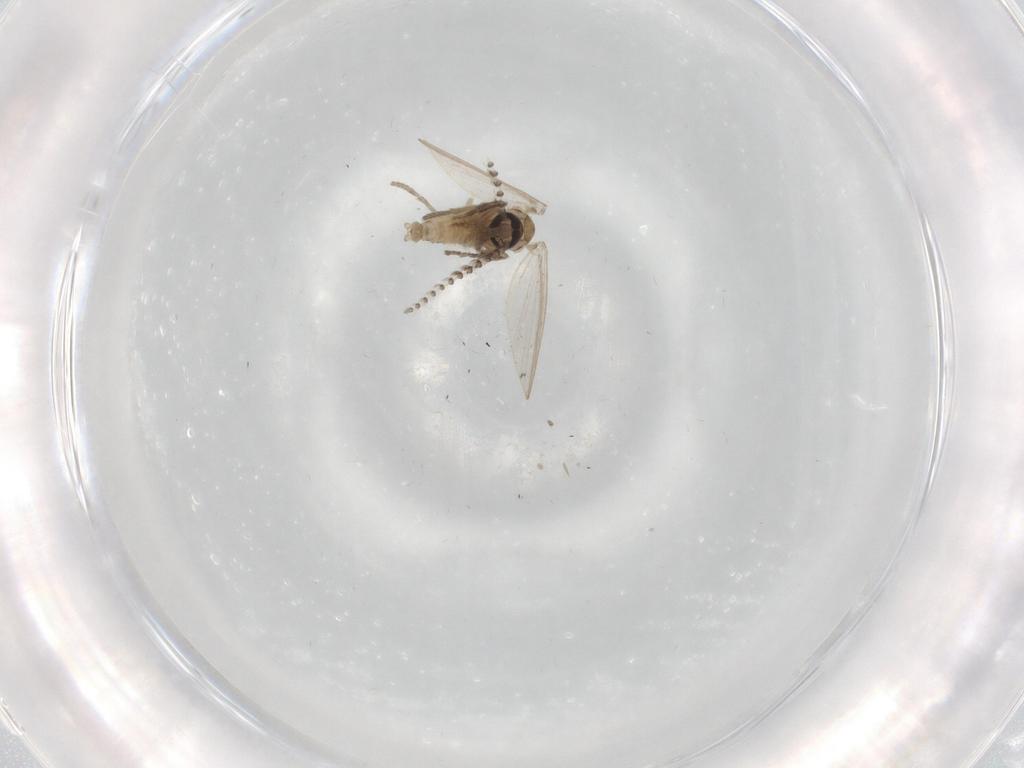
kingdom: Animalia
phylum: Arthropoda
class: Insecta
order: Diptera
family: Psychodidae
